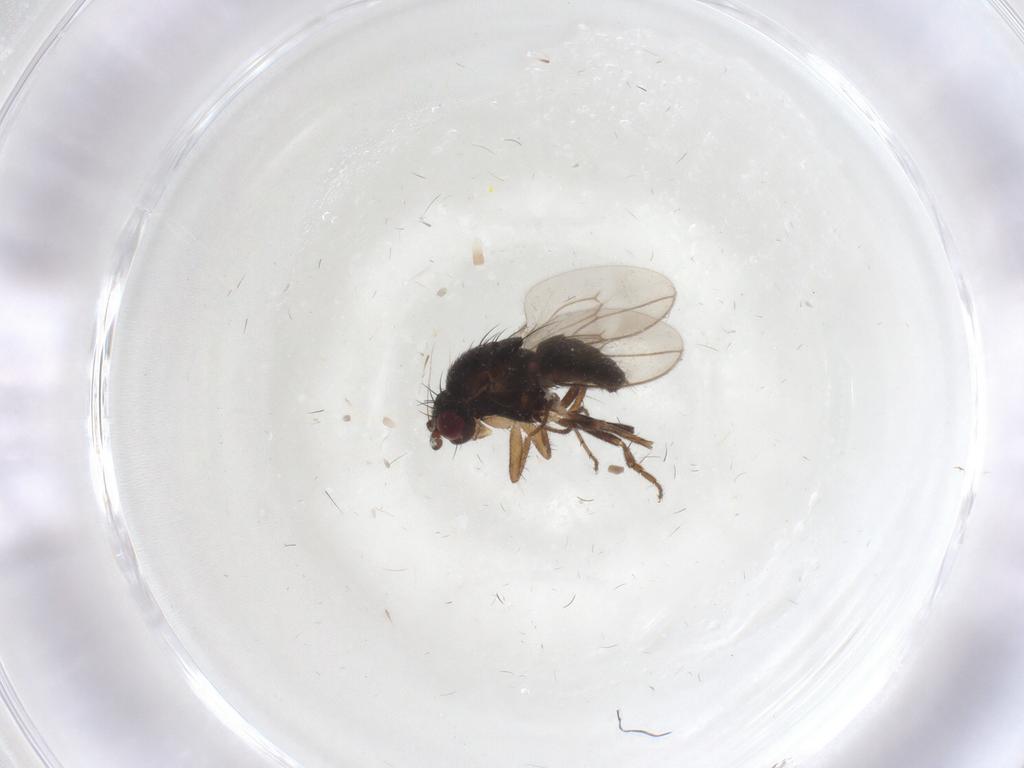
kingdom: Animalia
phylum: Arthropoda
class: Insecta
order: Diptera
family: Sphaeroceridae
